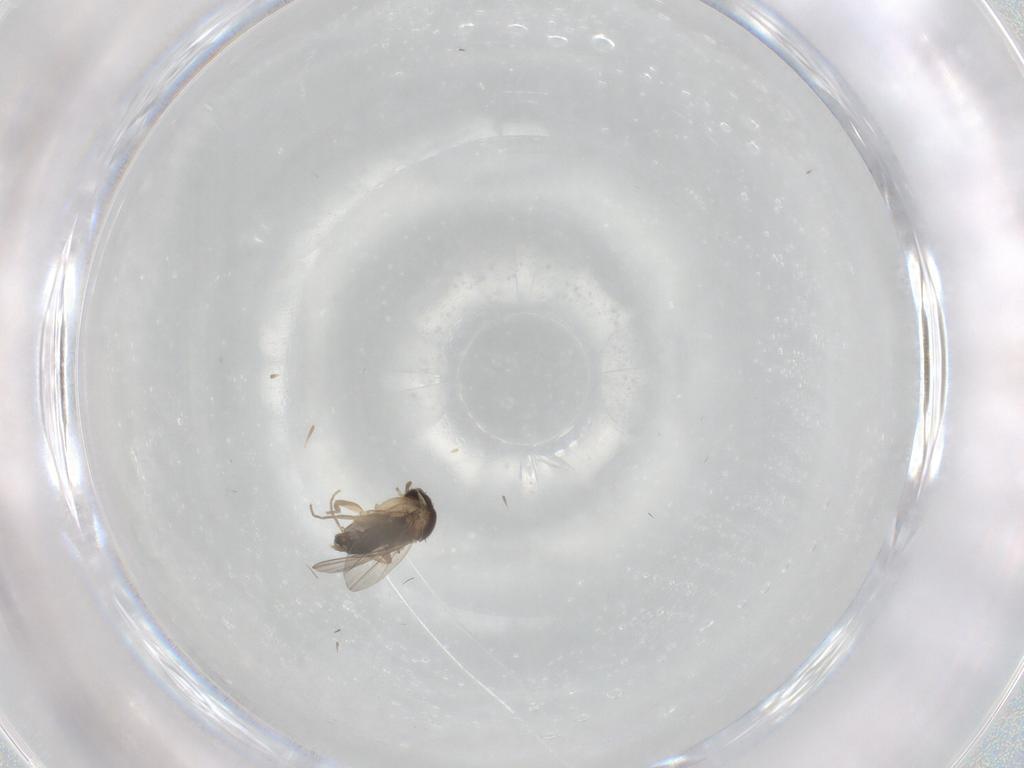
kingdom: Animalia
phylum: Arthropoda
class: Insecta
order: Diptera
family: Phoridae
